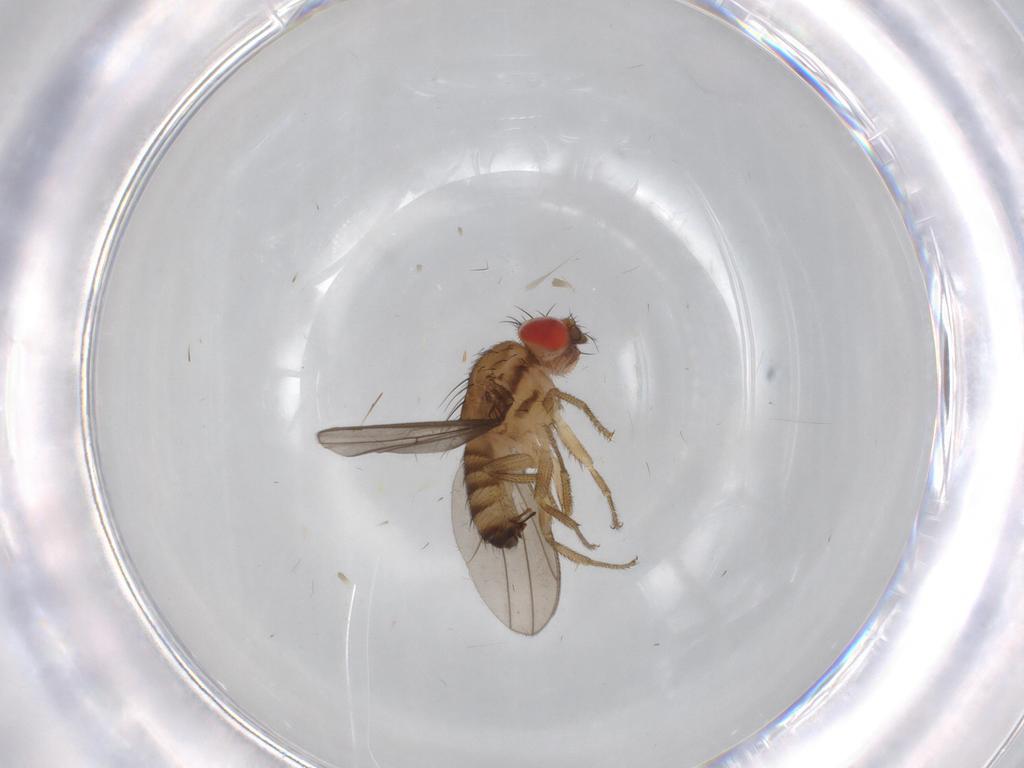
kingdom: Animalia
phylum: Arthropoda
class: Insecta
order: Diptera
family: Drosophilidae
